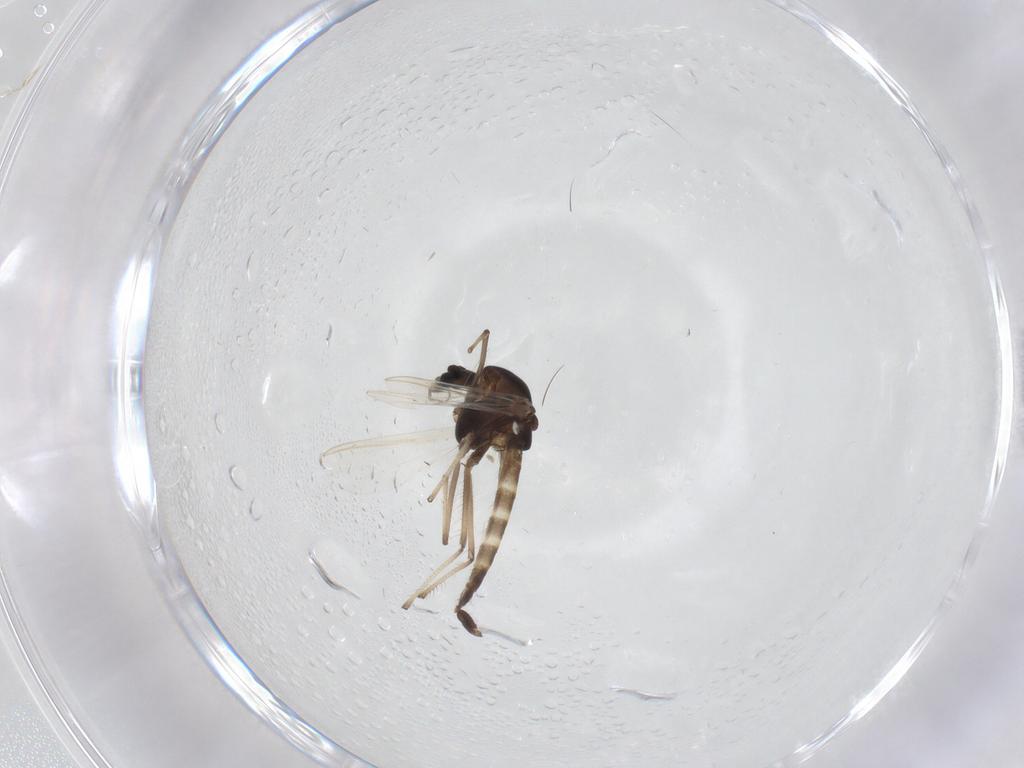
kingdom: Animalia
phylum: Arthropoda
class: Insecta
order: Diptera
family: Chironomidae
